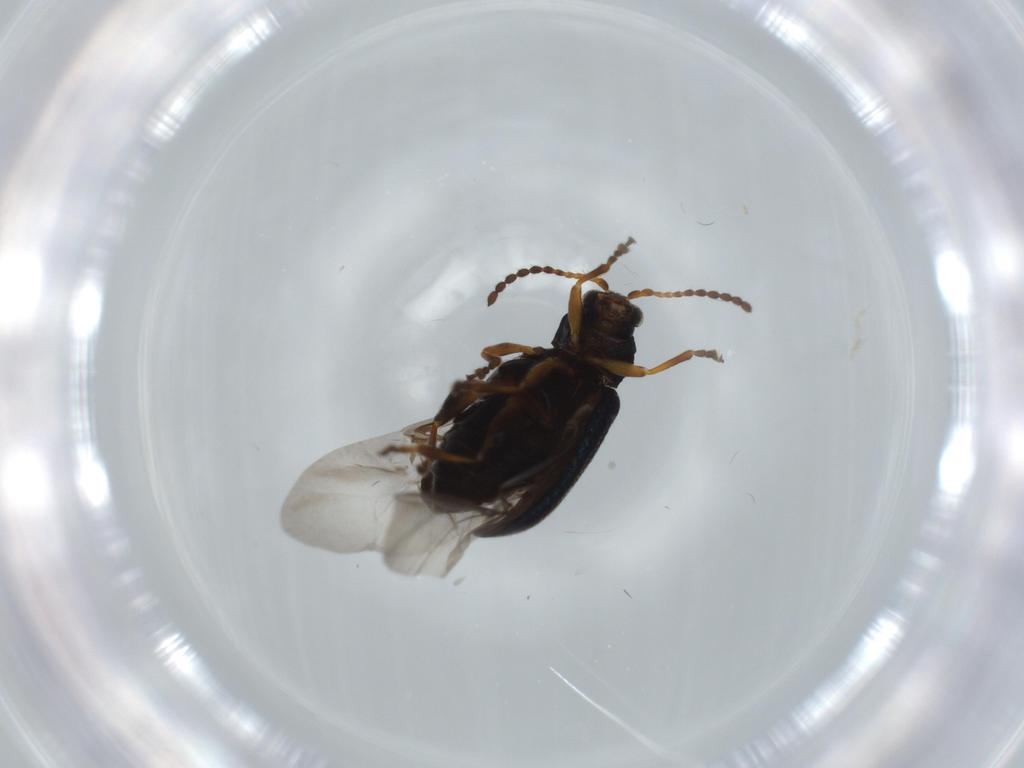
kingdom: Animalia
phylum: Arthropoda
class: Insecta
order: Coleoptera
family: Chrysomelidae
